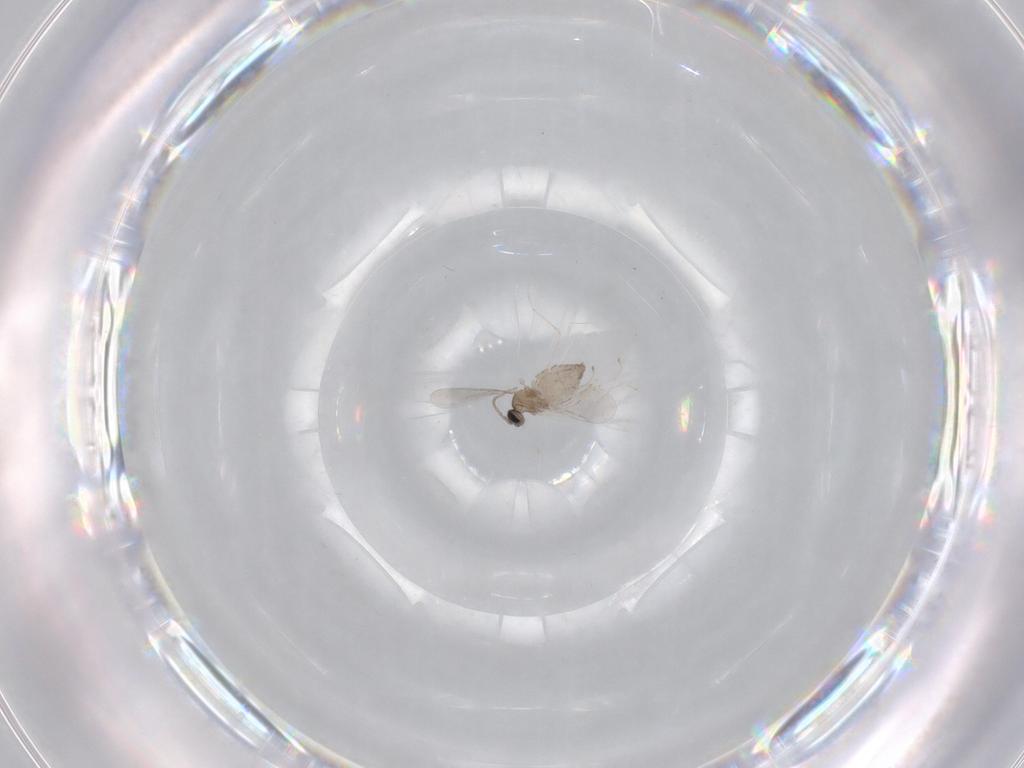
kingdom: Animalia
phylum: Arthropoda
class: Insecta
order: Diptera
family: Cecidomyiidae
